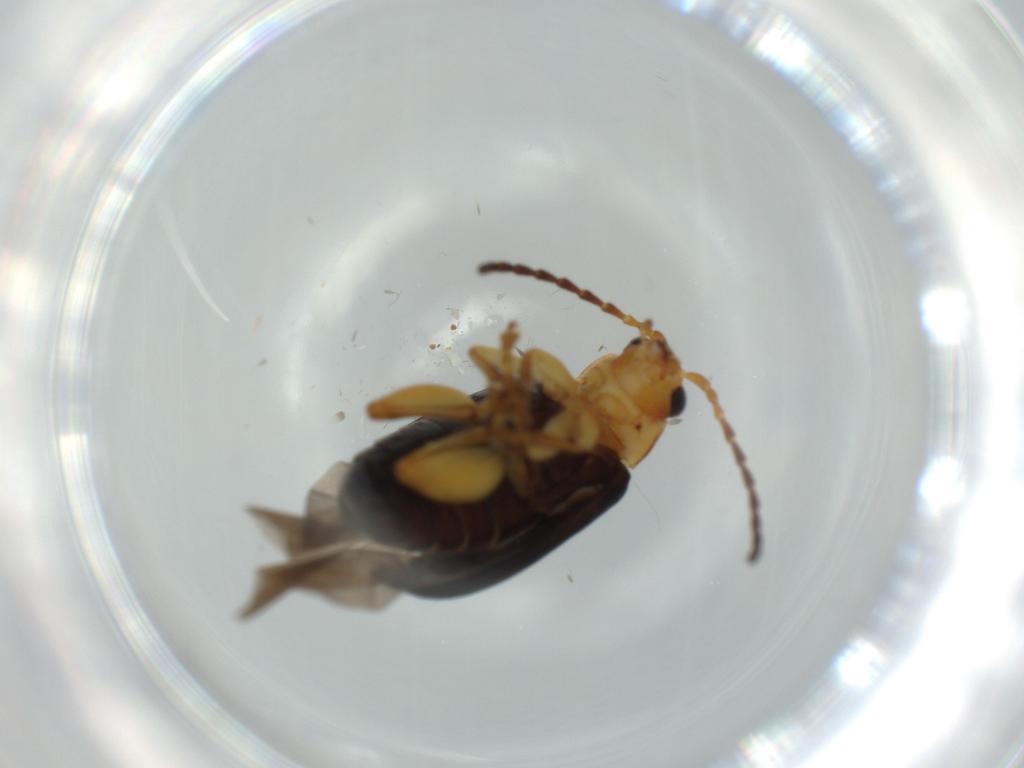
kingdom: Animalia
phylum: Arthropoda
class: Insecta
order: Coleoptera
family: Chrysomelidae
